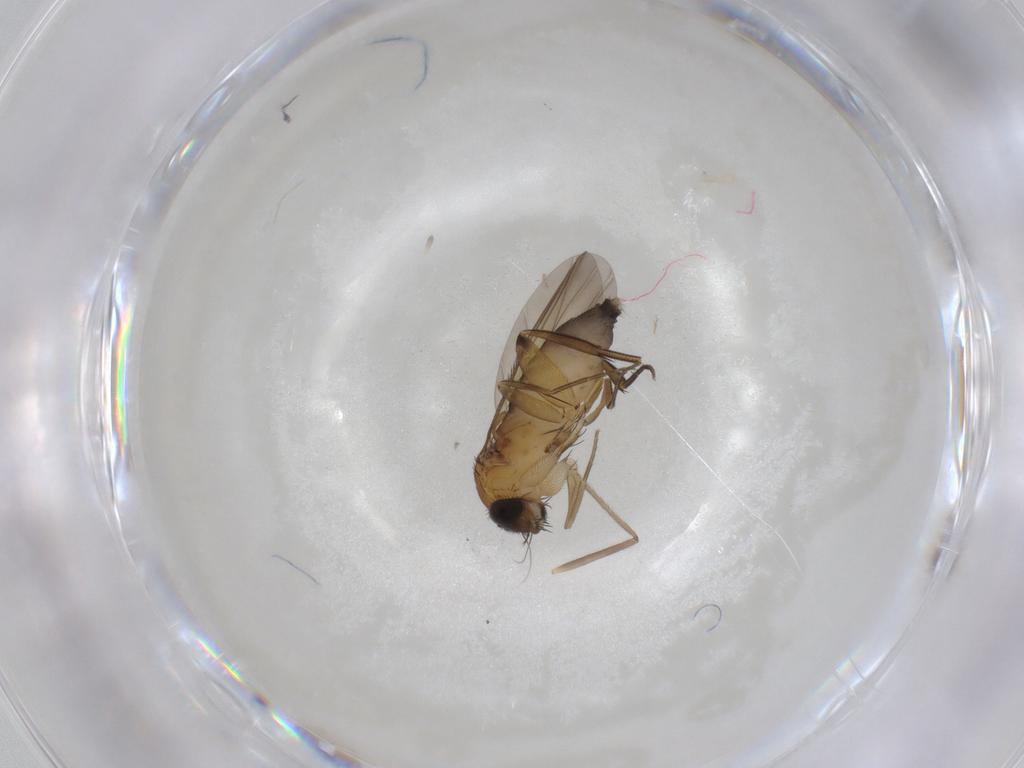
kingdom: Animalia
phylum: Arthropoda
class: Insecta
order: Diptera
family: Phoridae
